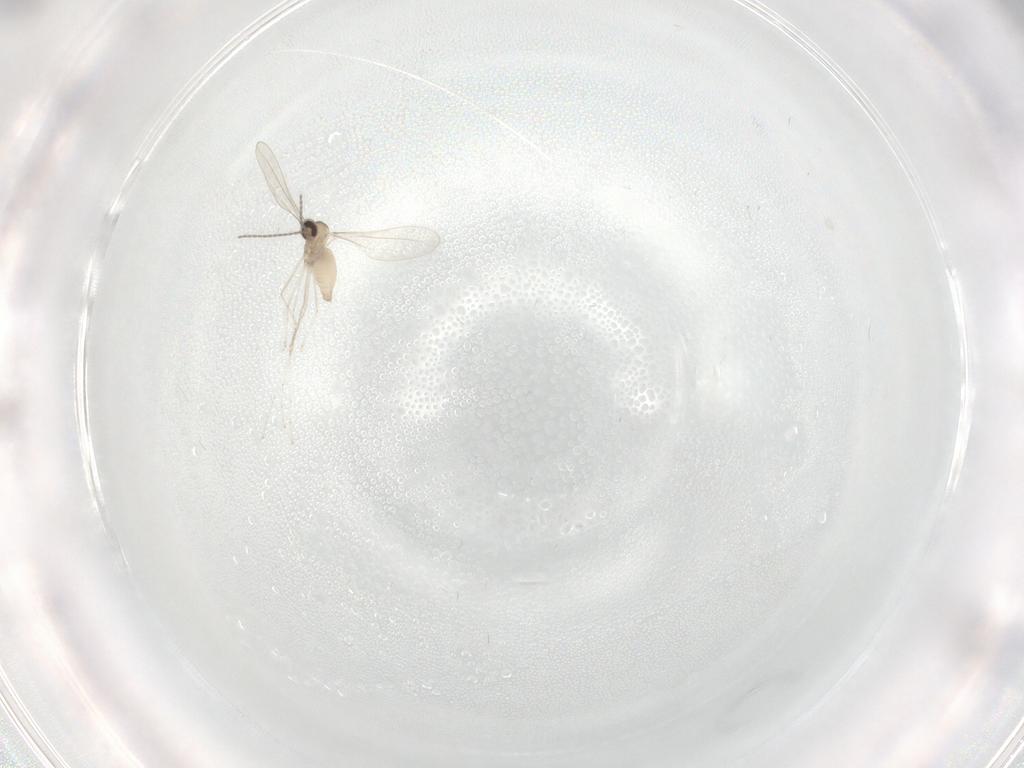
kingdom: Animalia
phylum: Arthropoda
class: Insecta
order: Diptera
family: Cecidomyiidae
